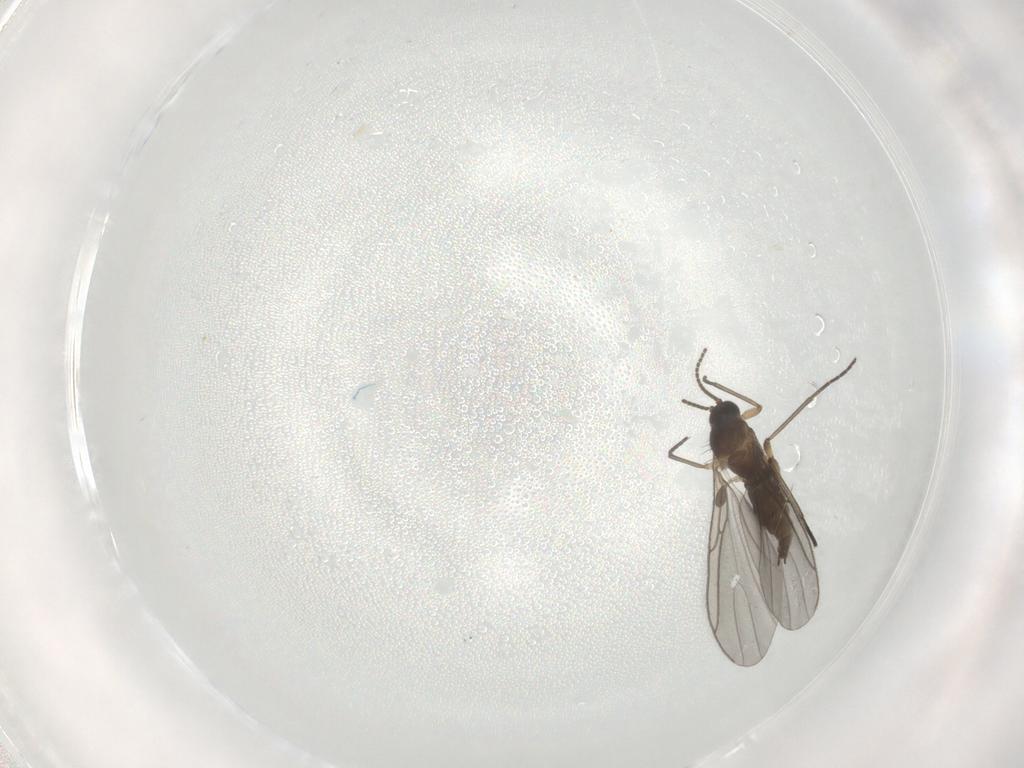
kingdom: Animalia
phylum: Arthropoda
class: Insecta
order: Diptera
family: Sciaridae
